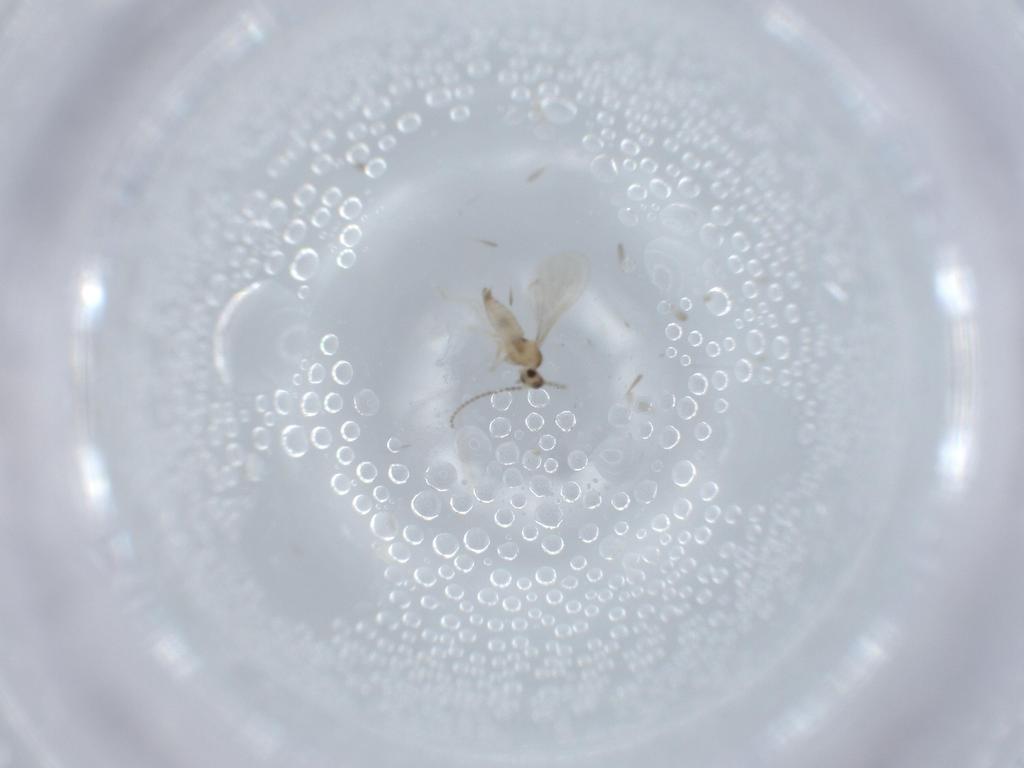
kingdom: Animalia
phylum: Arthropoda
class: Insecta
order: Diptera
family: Cecidomyiidae
